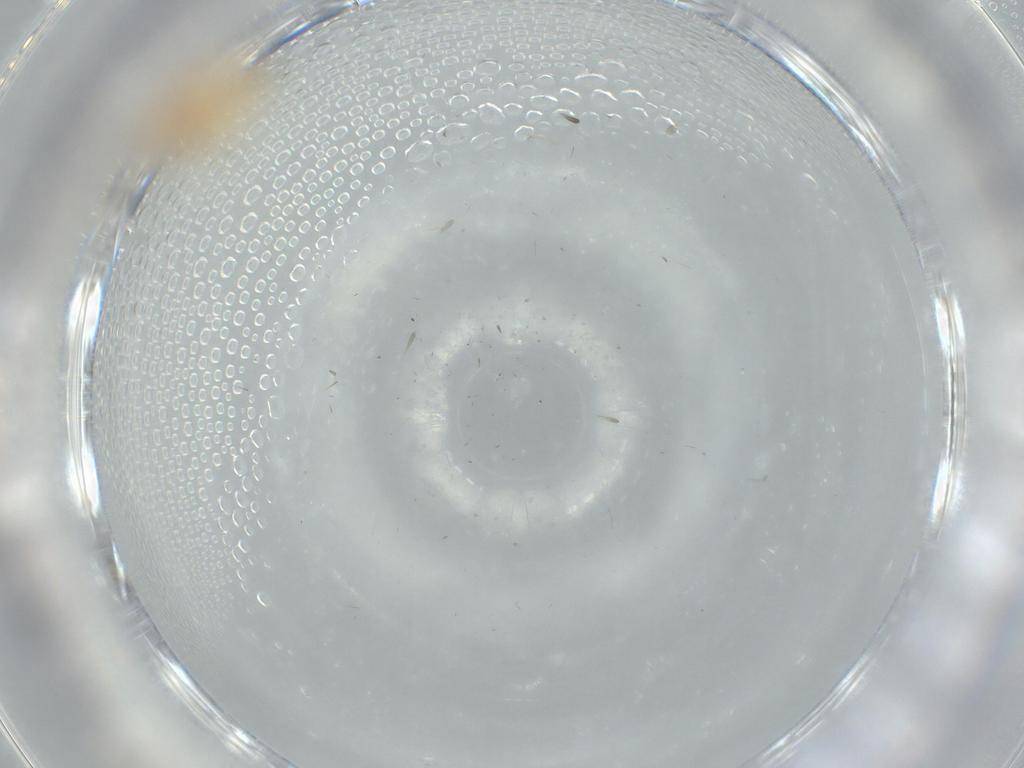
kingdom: Animalia
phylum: Arthropoda
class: Insecta
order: Diptera
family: Cecidomyiidae
